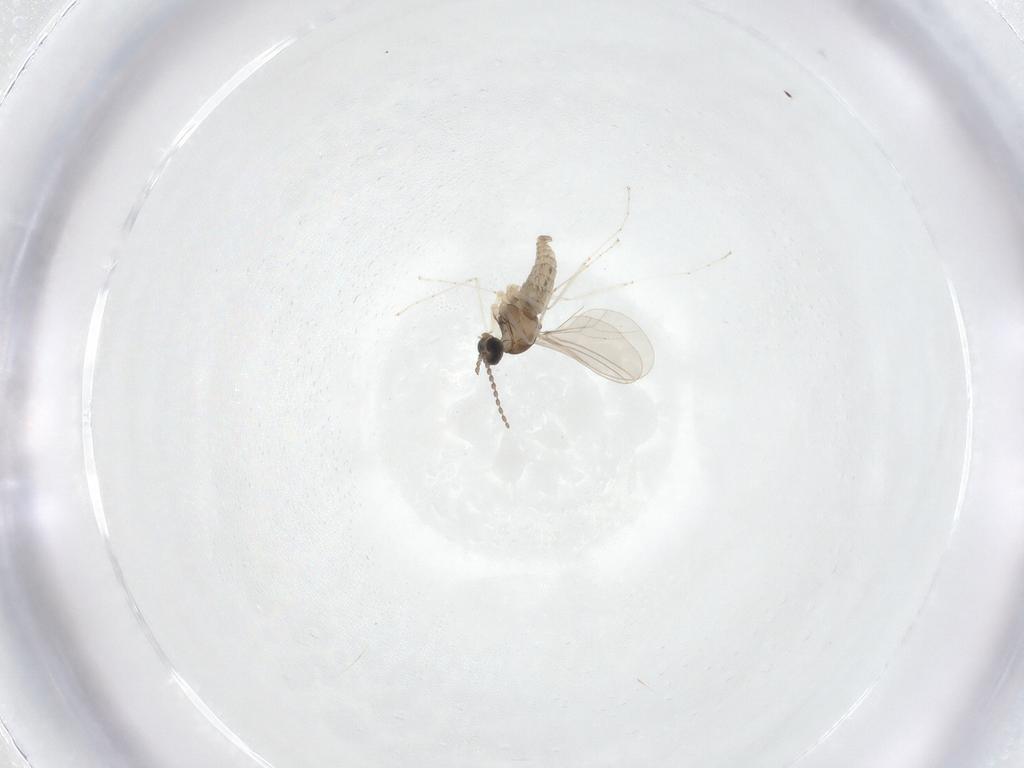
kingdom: Animalia
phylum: Arthropoda
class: Insecta
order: Diptera
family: Cecidomyiidae
